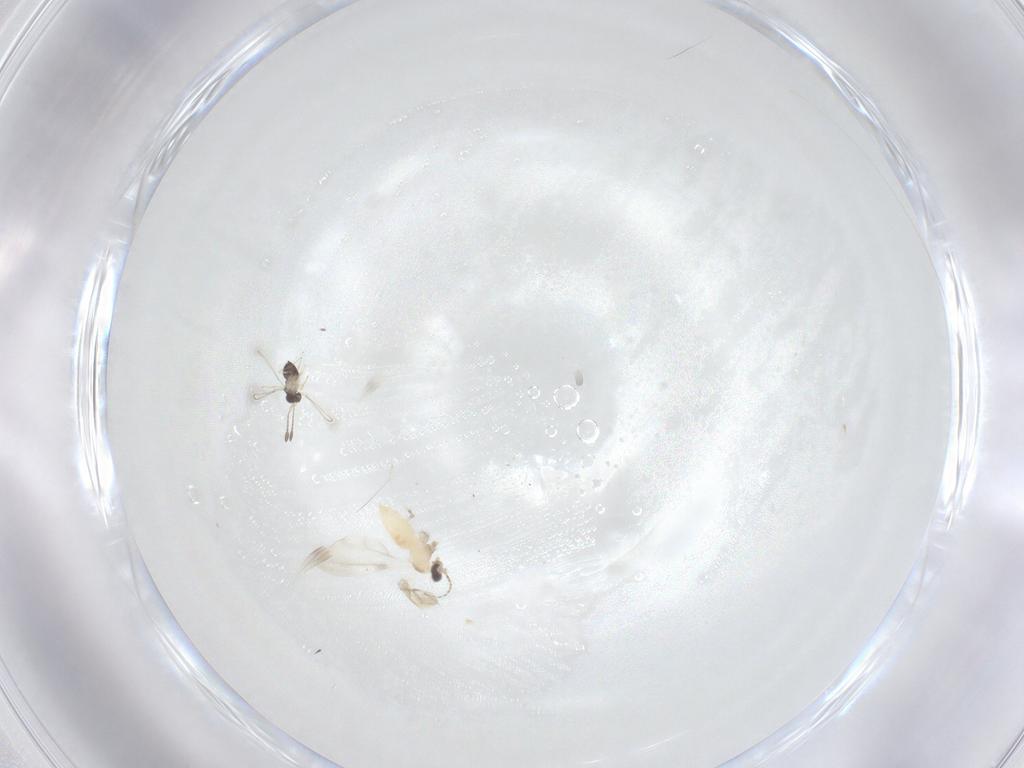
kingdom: Animalia
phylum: Arthropoda
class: Insecta
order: Diptera
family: Cecidomyiidae
